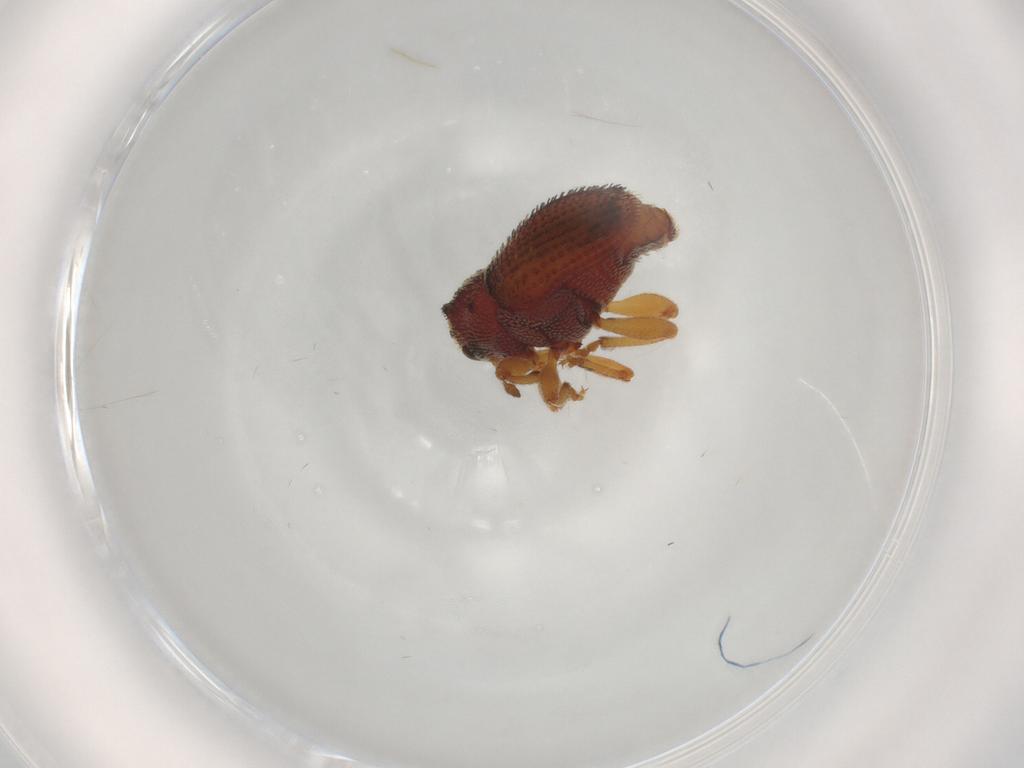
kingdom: Animalia
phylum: Arthropoda
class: Insecta
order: Coleoptera
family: Curculionidae
